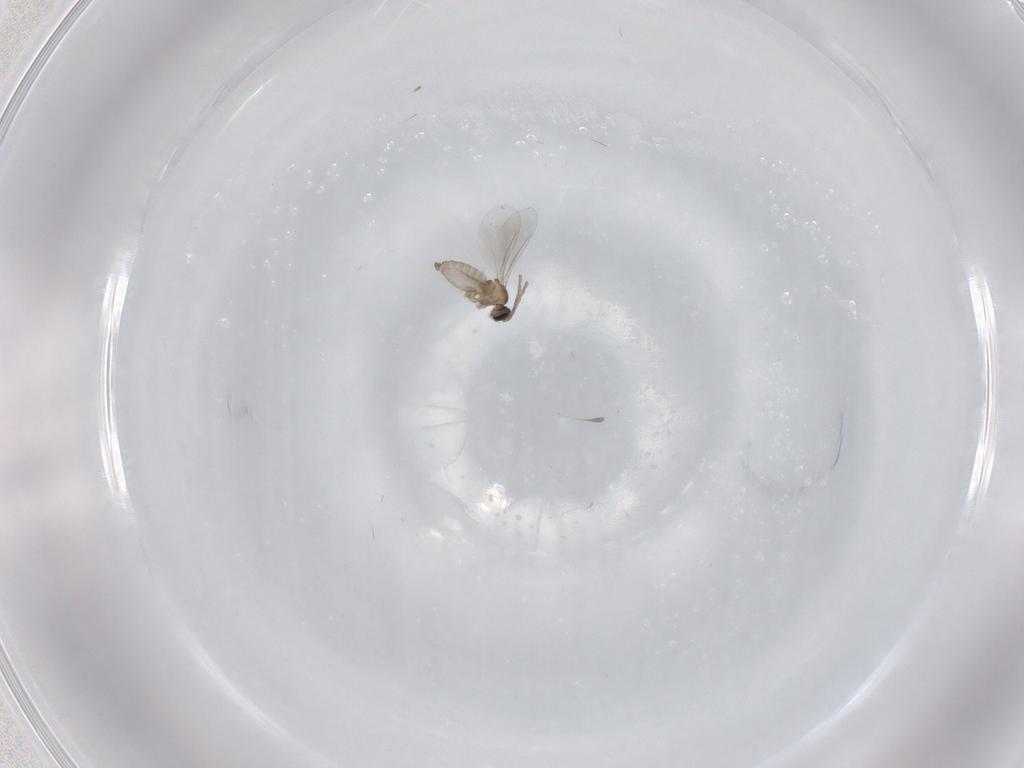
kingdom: Animalia
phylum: Arthropoda
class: Insecta
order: Diptera
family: Cecidomyiidae
